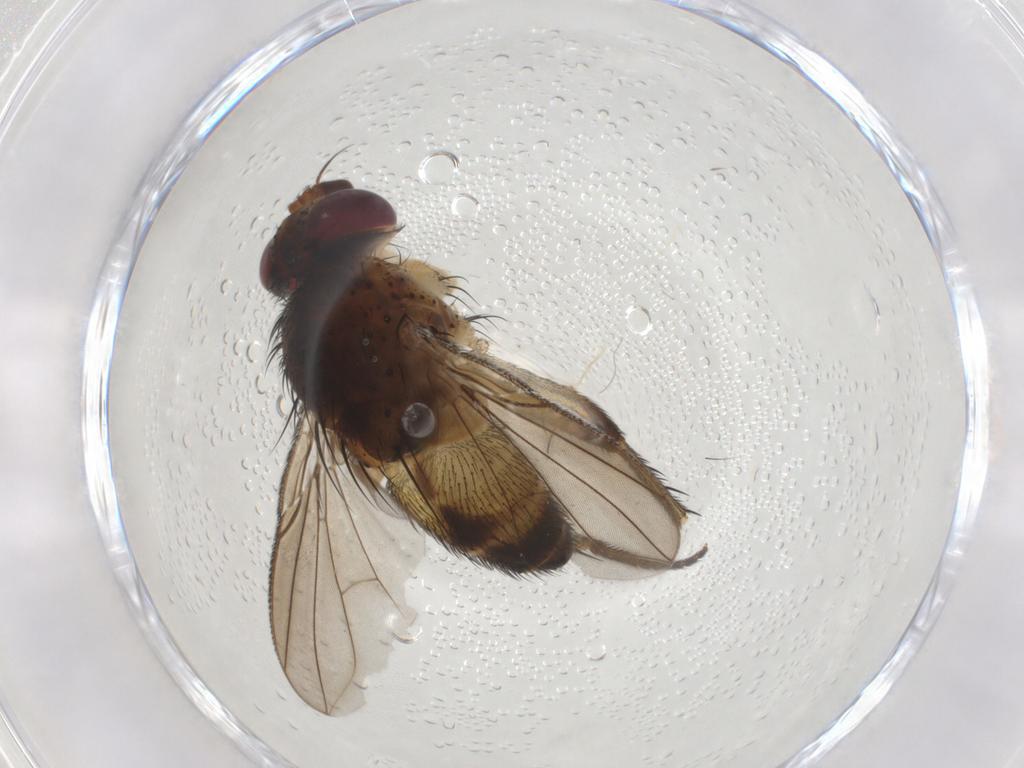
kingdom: Animalia
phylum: Arthropoda
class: Insecta
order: Diptera
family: Tachinidae
